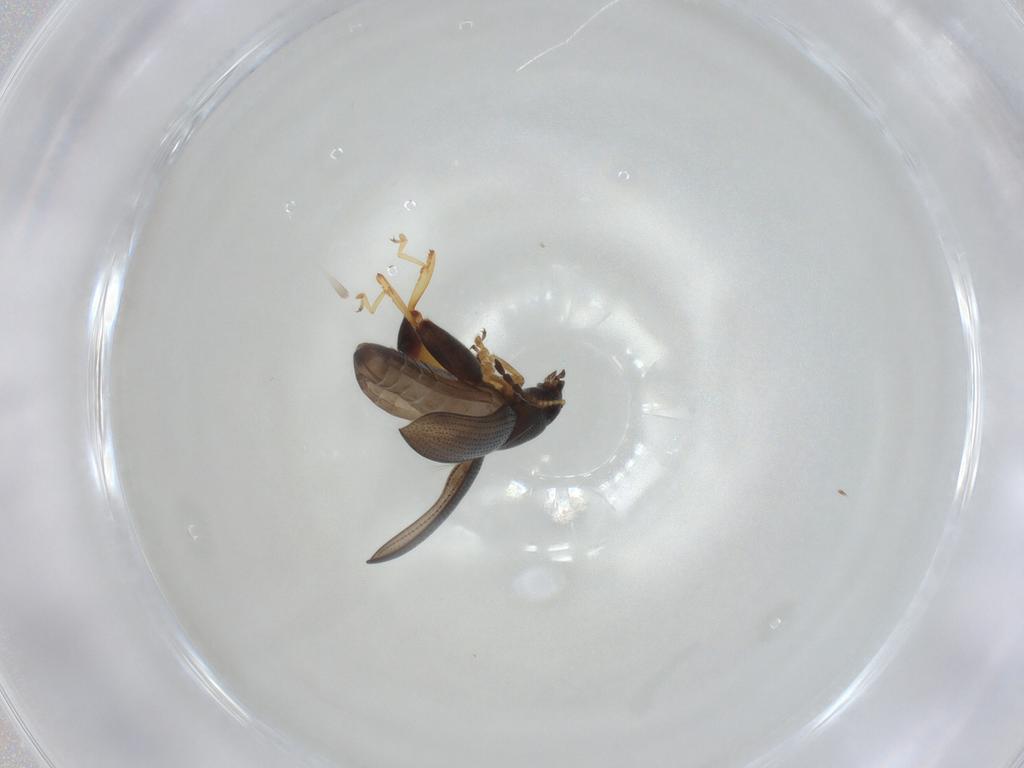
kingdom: Animalia
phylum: Arthropoda
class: Insecta
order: Coleoptera
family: Chrysomelidae
